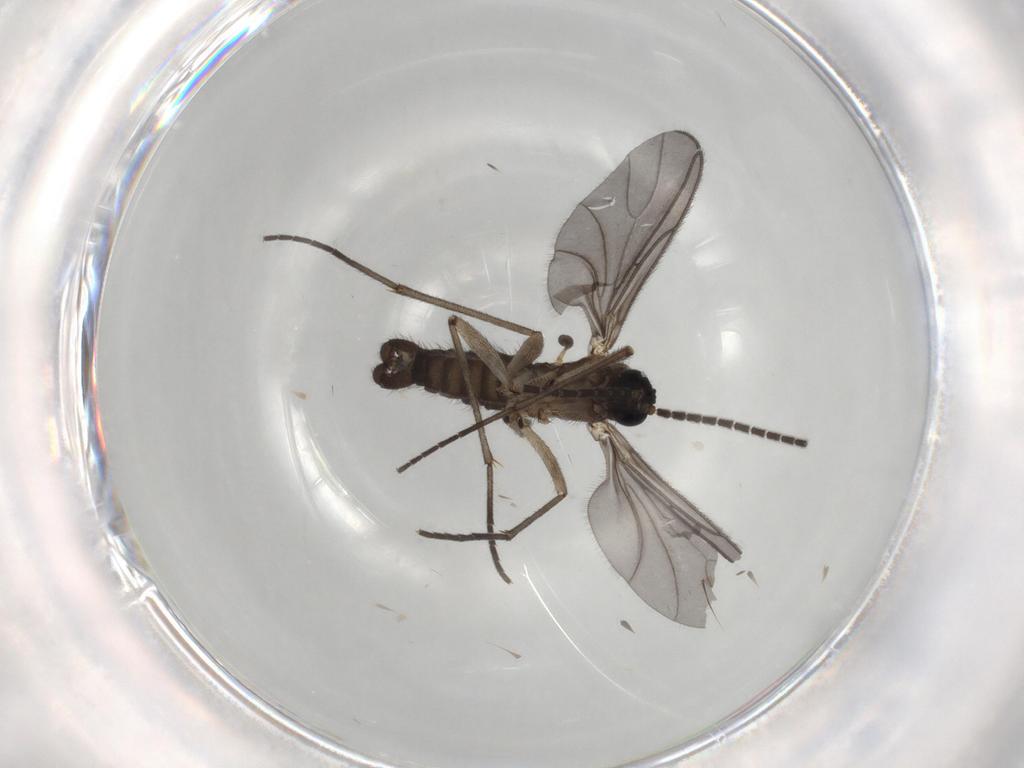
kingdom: Animalia
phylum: Arthropoda
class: Insecta
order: Diptera
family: Sciaridae
